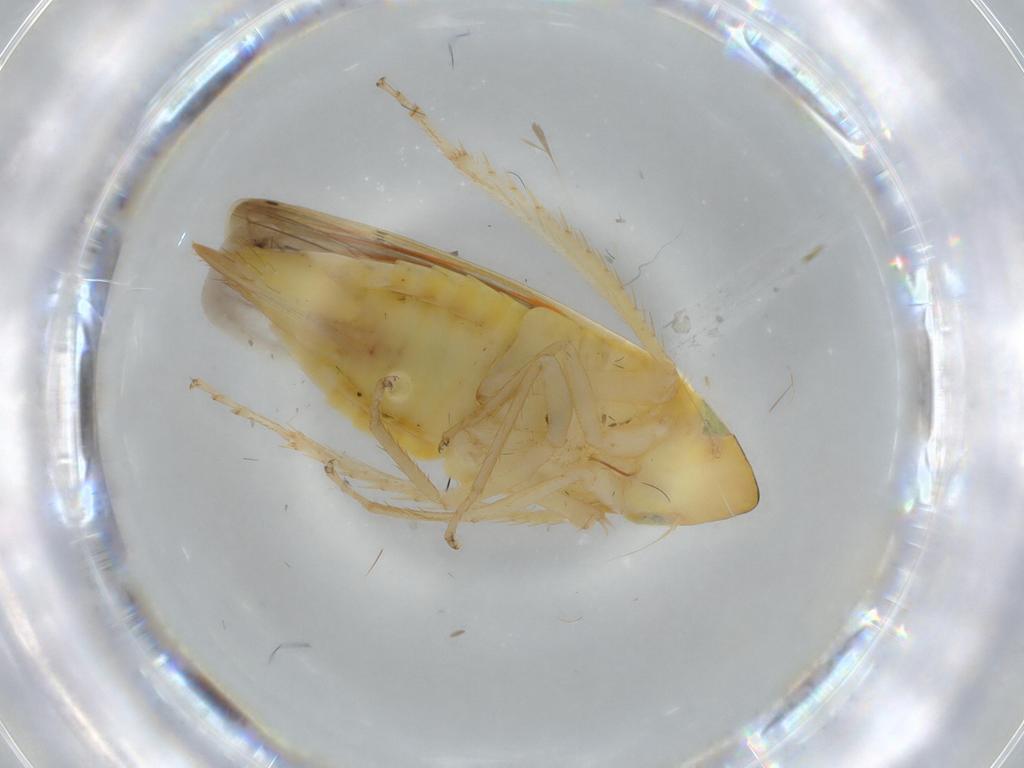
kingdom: Animalia
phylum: Arthropoda
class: Insecta
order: Hemiptera
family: Cicadellidae
